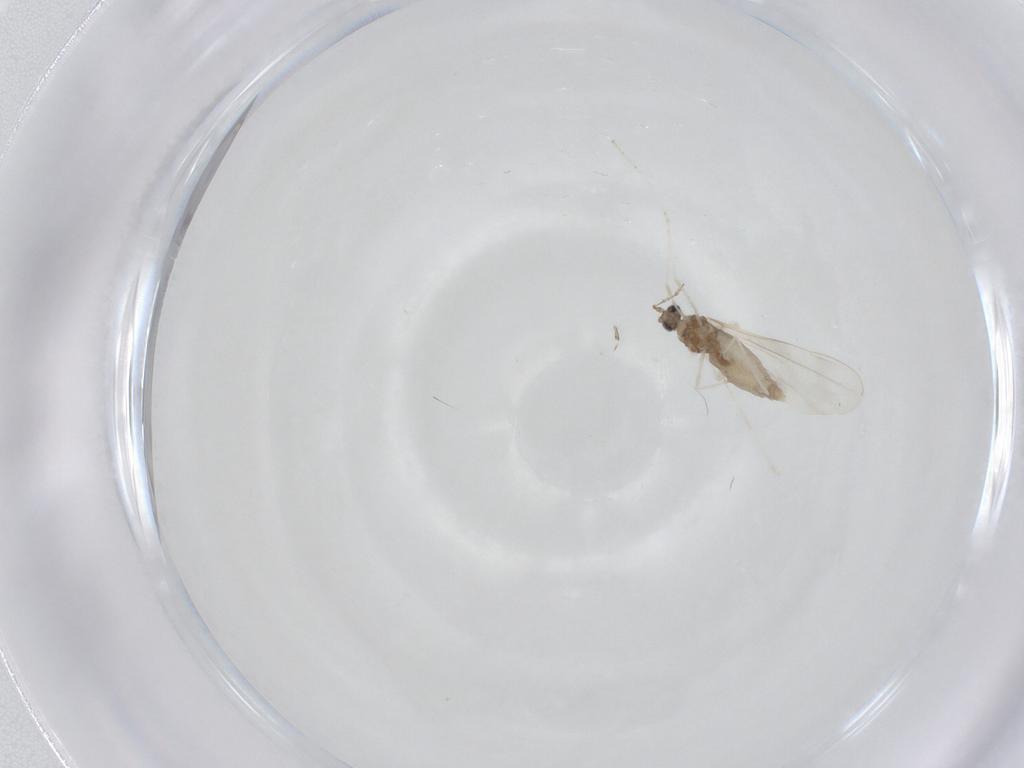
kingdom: Animalia
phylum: Arthropoda
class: Insecta
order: Diptera
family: Cecidomyiidae
